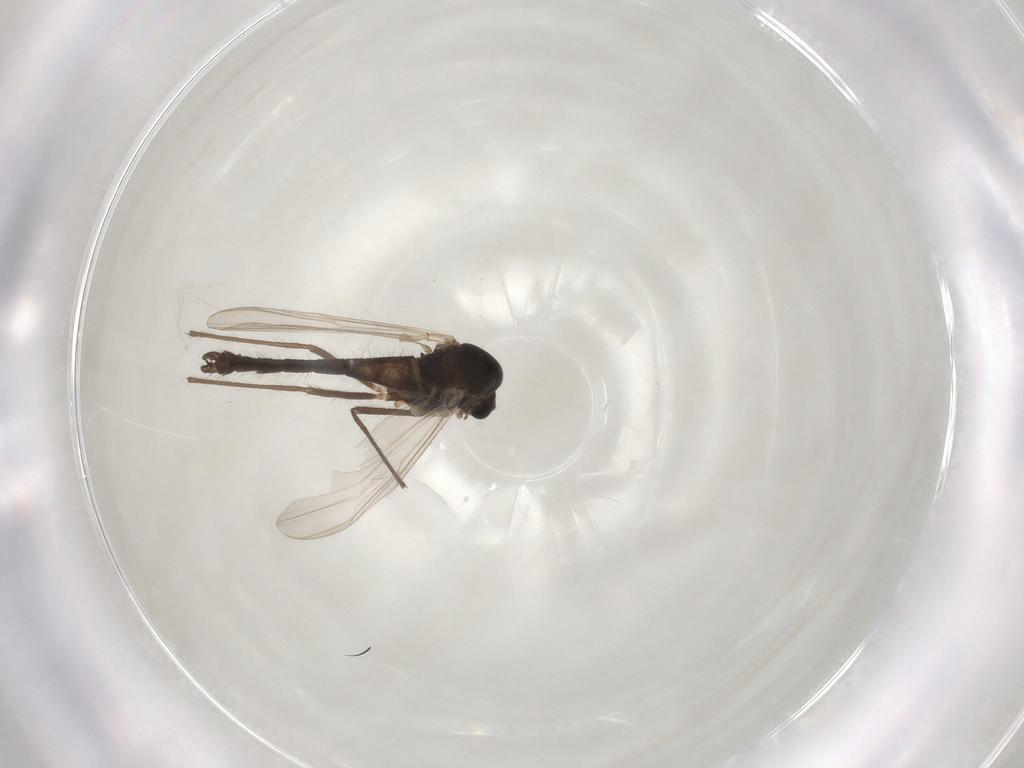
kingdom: Animalia
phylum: Arthropoda
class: Insecta
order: Diptera
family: Chironomidae
